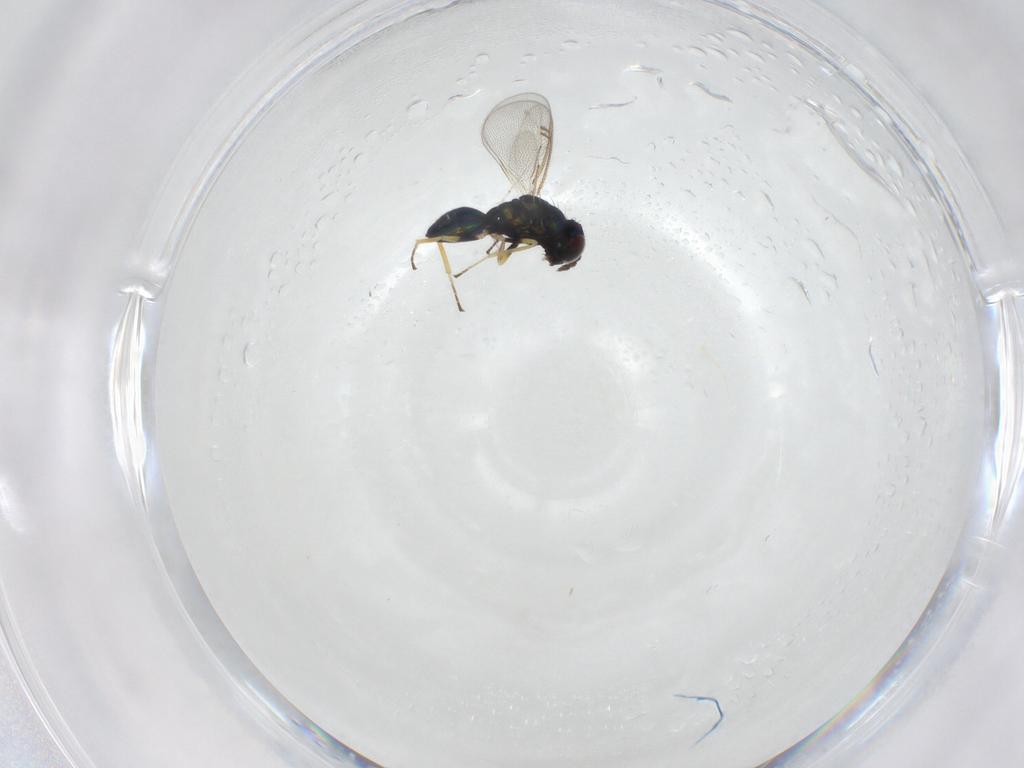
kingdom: Animalia
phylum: Arthropoda
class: Insecta
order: Hymenoptera
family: Eulophidae
